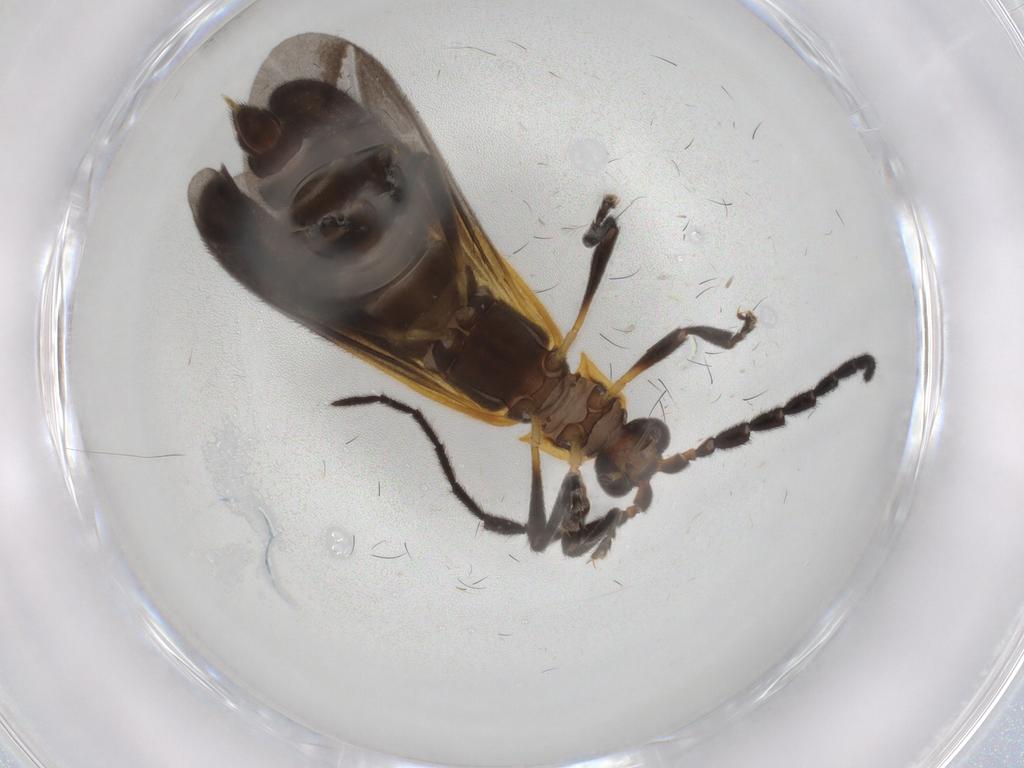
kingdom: Animalia
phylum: Arthropoda
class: Insecta
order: Coleoptera
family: Lycidae
